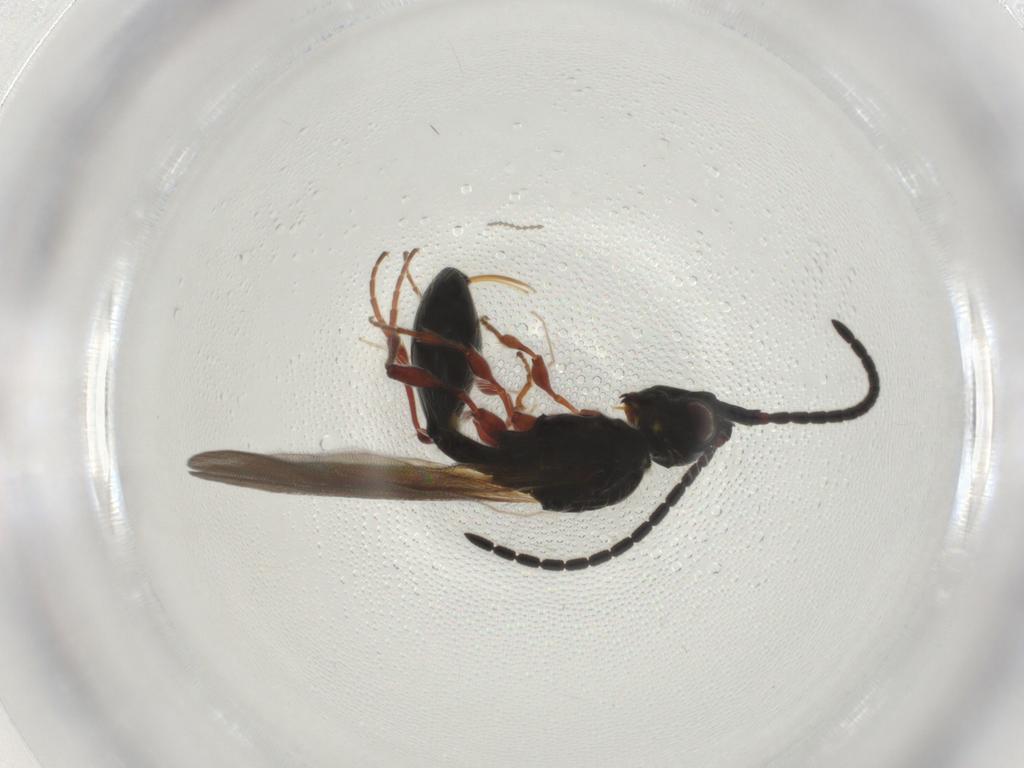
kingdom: Animalia
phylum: Arthropoda
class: Insecta
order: Hymenoptera
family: Diapriidae
